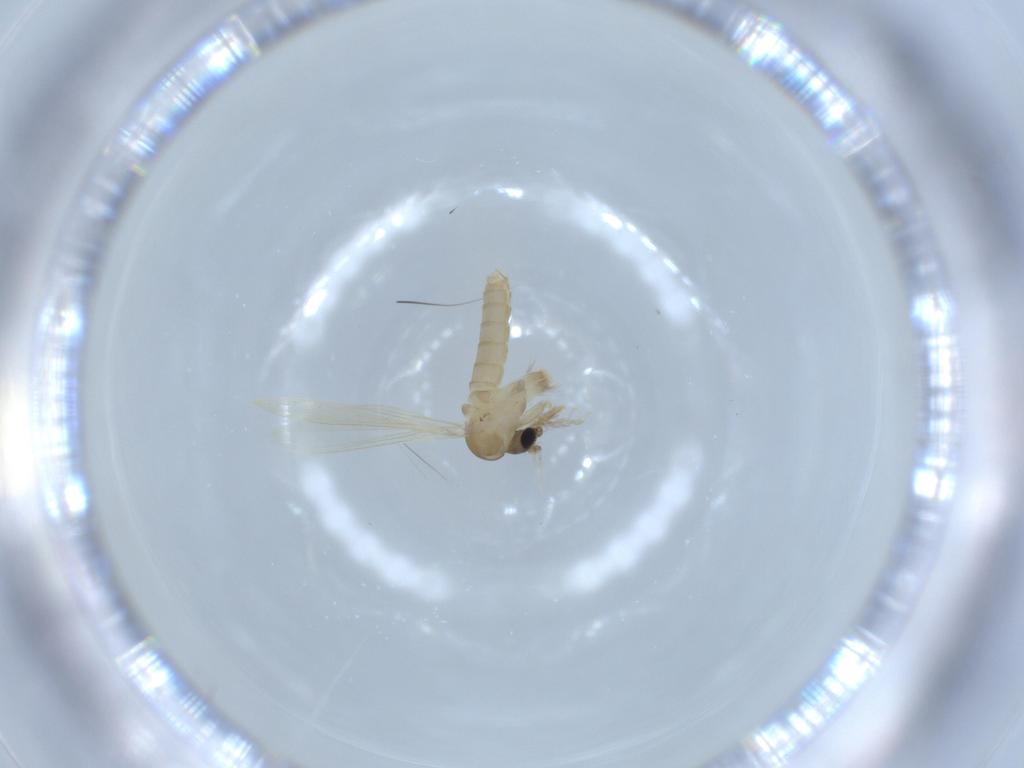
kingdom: Animalia
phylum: Arthropoda
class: Insecta
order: Diptera
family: Psychodidae
